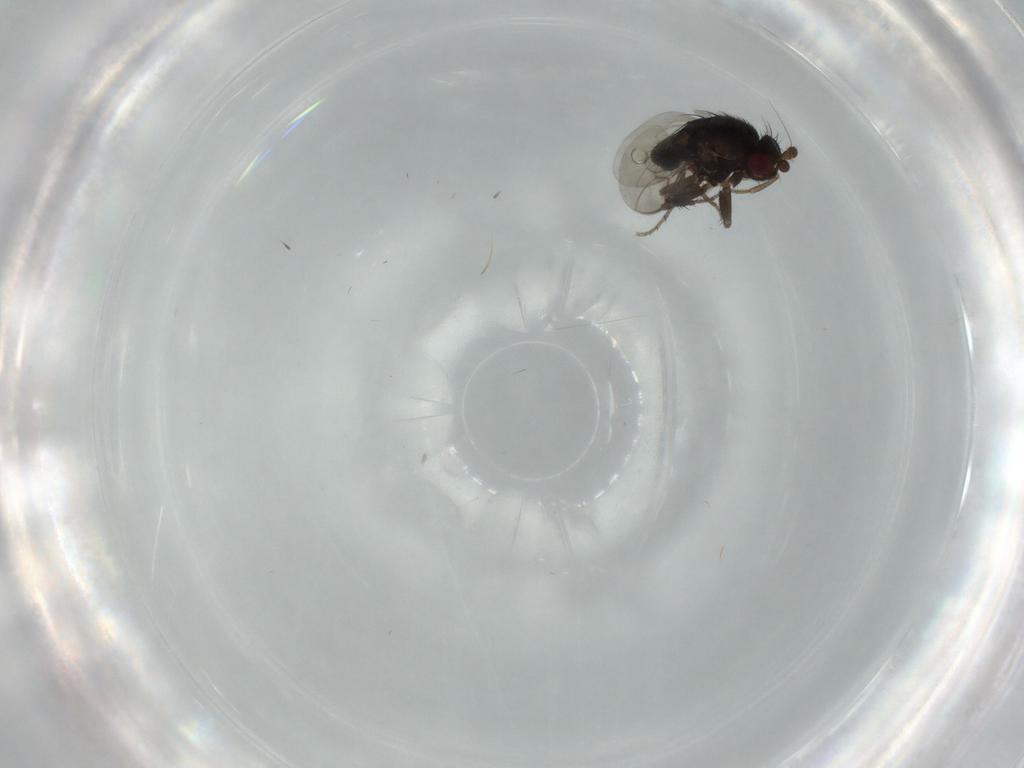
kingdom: Animalia
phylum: Arthropoda
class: Insecta
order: Diptera
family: Sphaeroceridae
